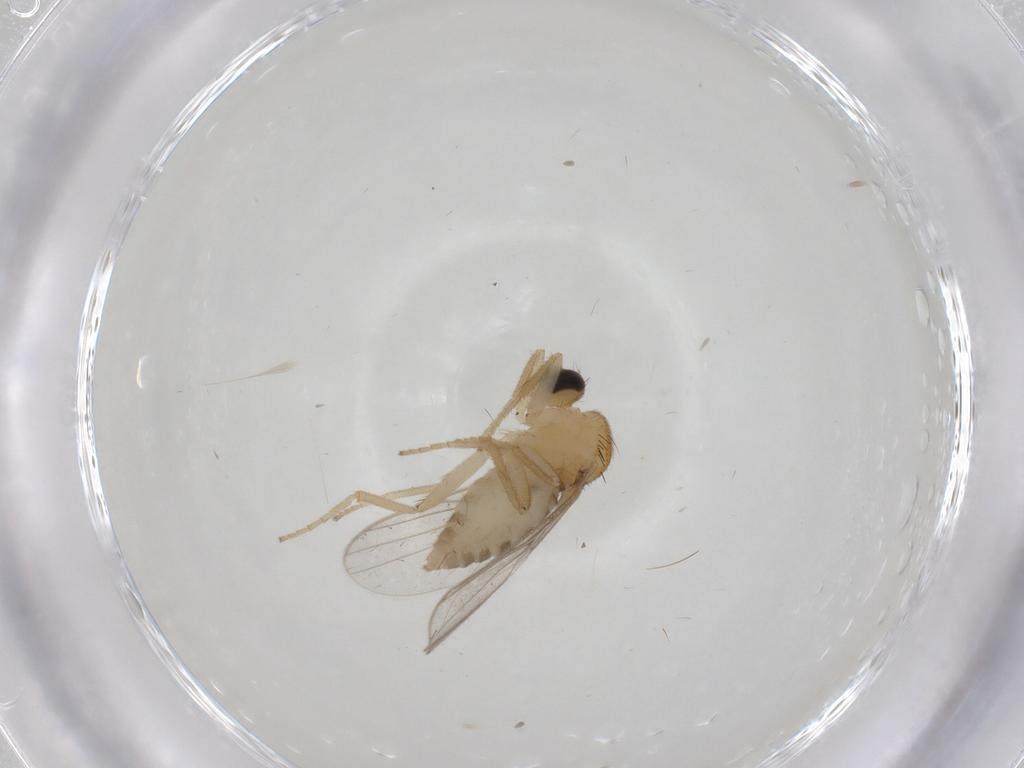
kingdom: Animalia
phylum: Arthropoda
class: Insecta
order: Diptera
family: Hybotidae
